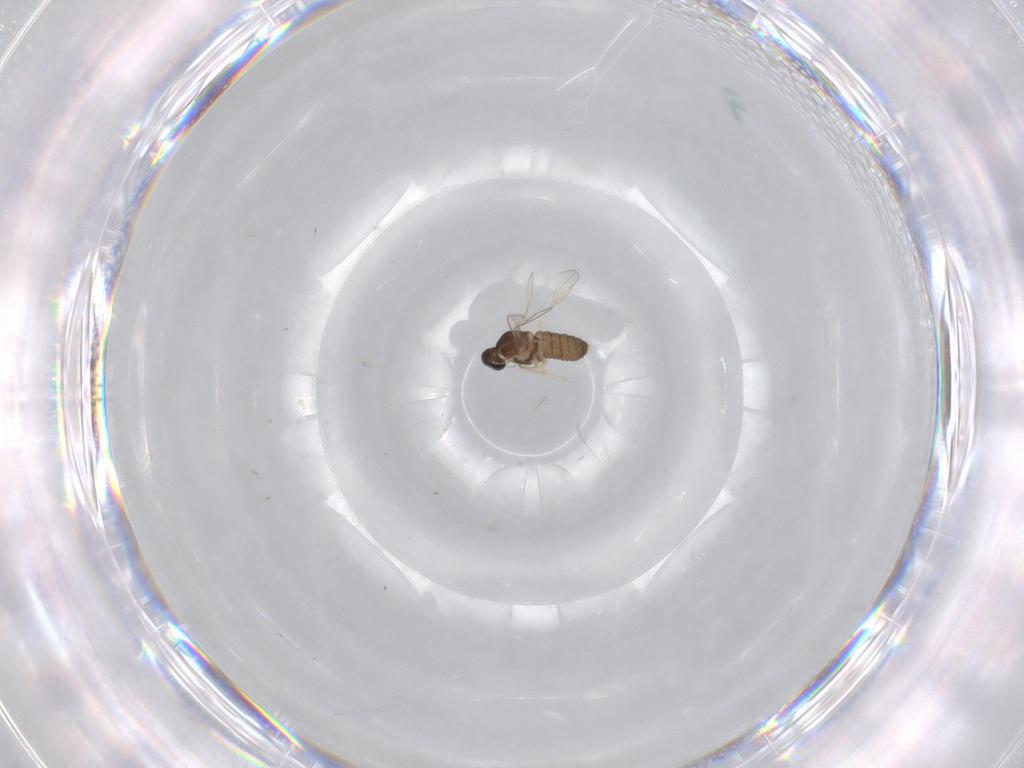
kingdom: Animalia
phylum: Arthropoda
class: Insecta
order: Diptera
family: Cecidomyiidae
